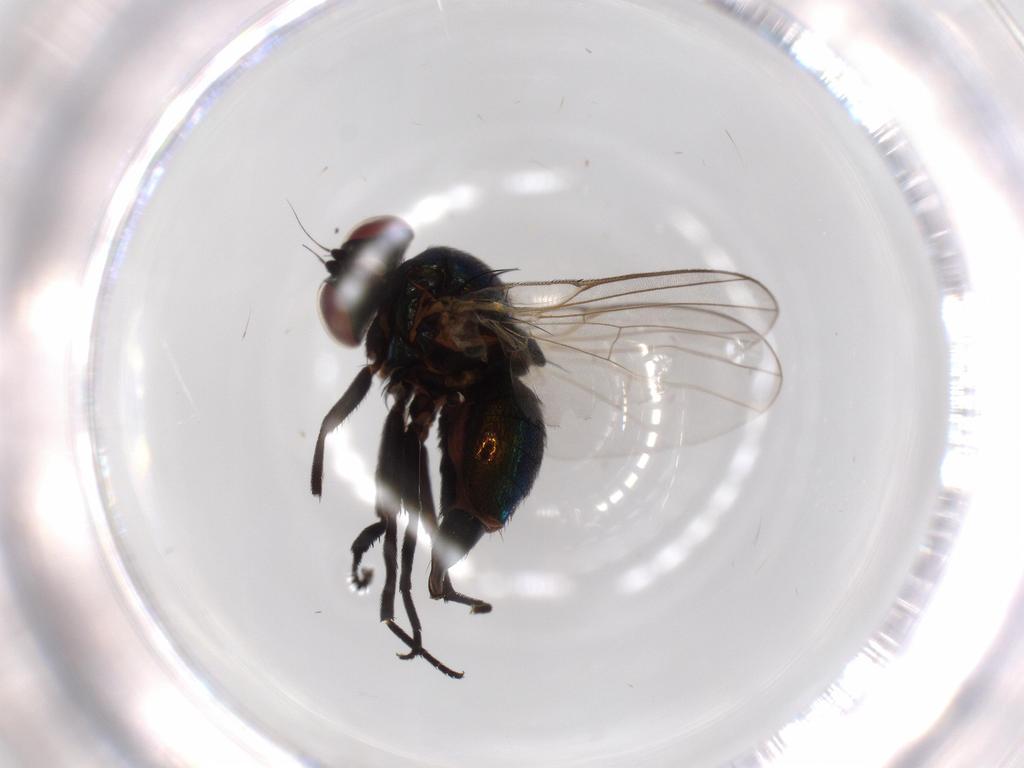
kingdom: Animalia
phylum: Arthropoda
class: Insecta
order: Diptera
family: Agromyzidae
